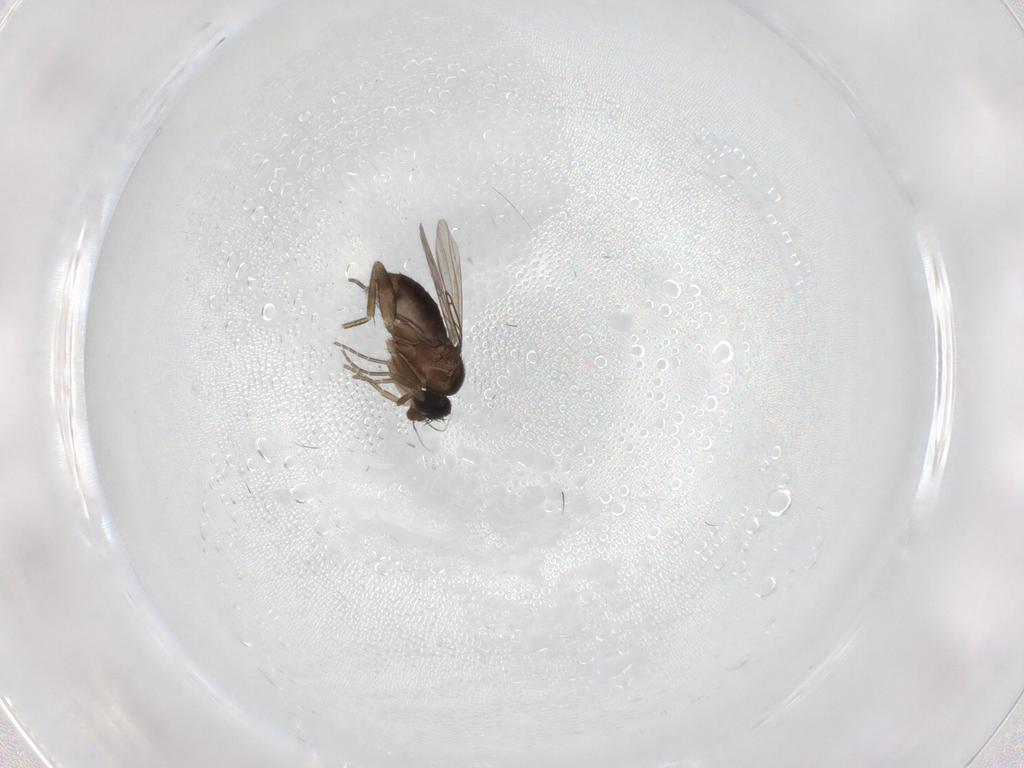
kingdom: Animalia
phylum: Arthropoda
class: Insecta
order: Diptera
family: Phoridae
